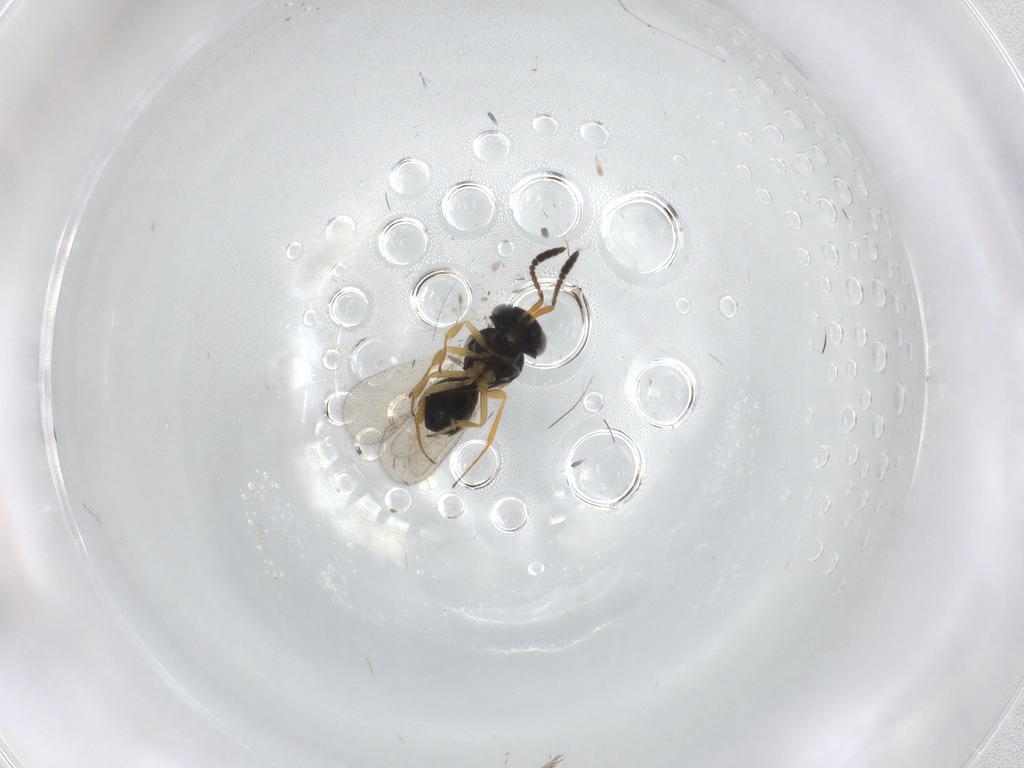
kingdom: Animalia
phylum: Arthropoda
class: Insecta
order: Hymenoptera
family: Scelionidae
